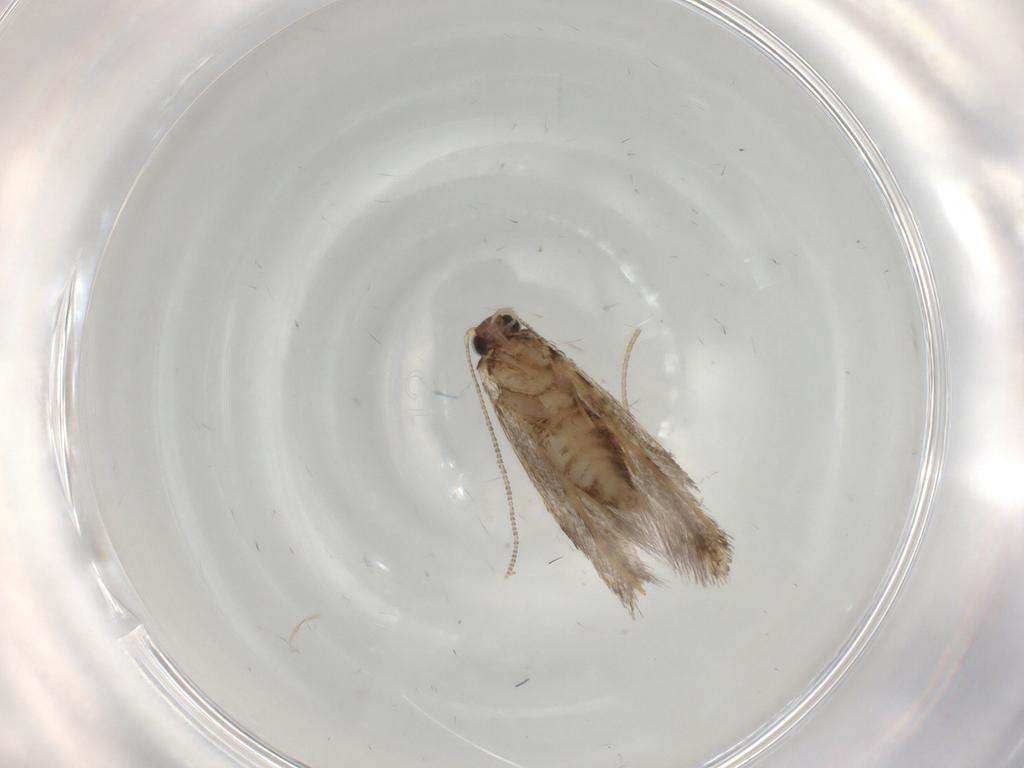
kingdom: Animalia
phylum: Arthropoda
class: Insecta
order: Lepidoptera
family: Tineidae
